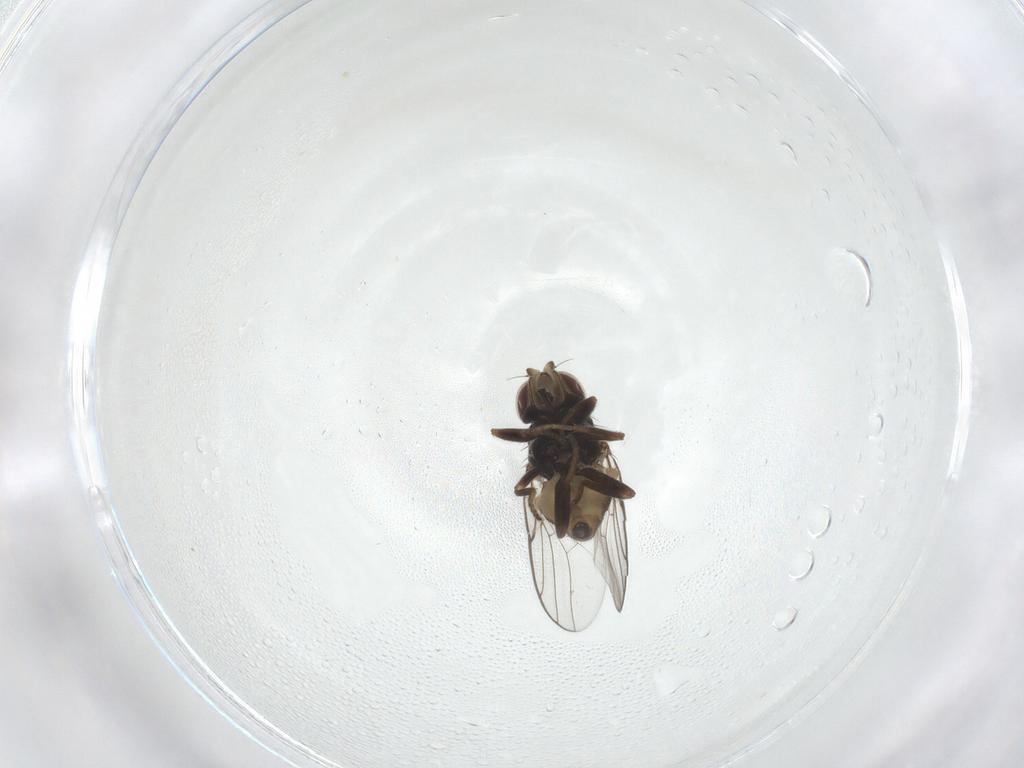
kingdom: Animalia
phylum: Arthropoda
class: Insecta
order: Diptera
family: Chloropidae
